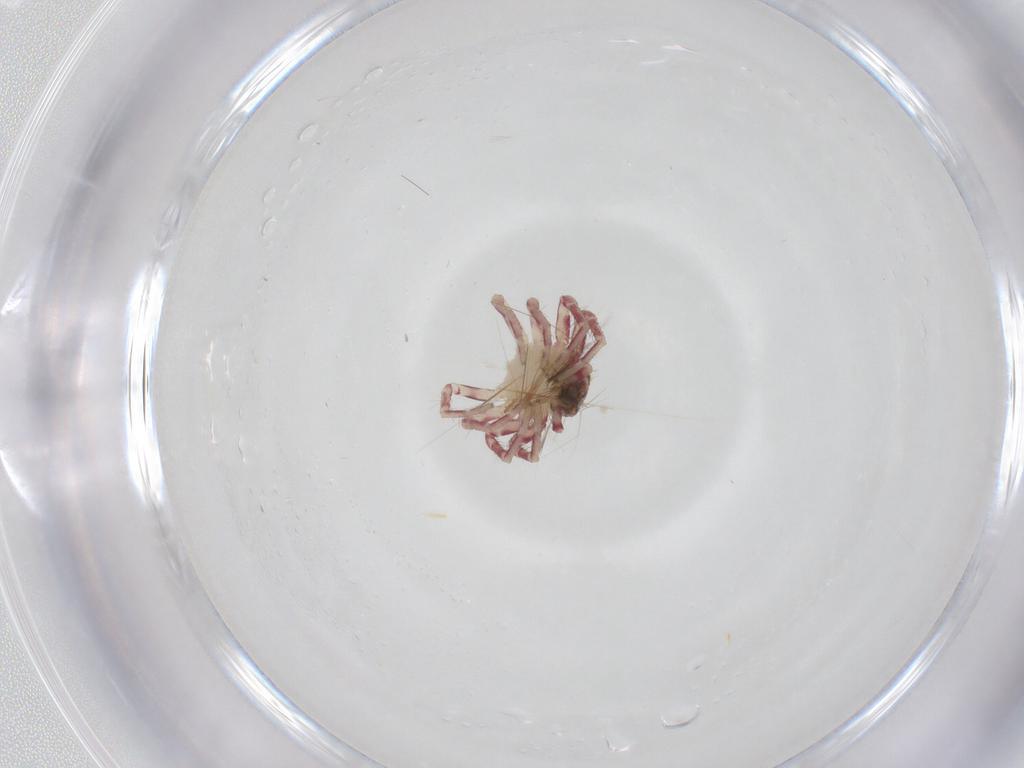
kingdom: Animalia
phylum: Arthropoda
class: Arachnida
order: Araneae
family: Thomisidae
